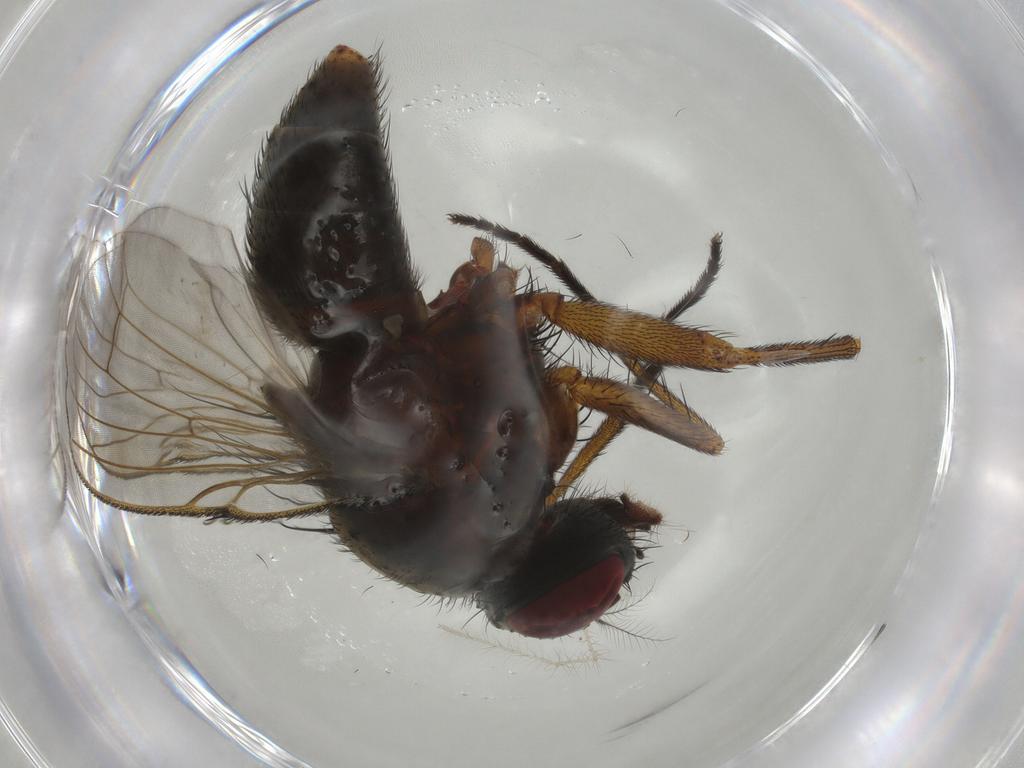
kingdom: Animalia
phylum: Arthropoda
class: Insecta
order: Diptera
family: Muscidae
